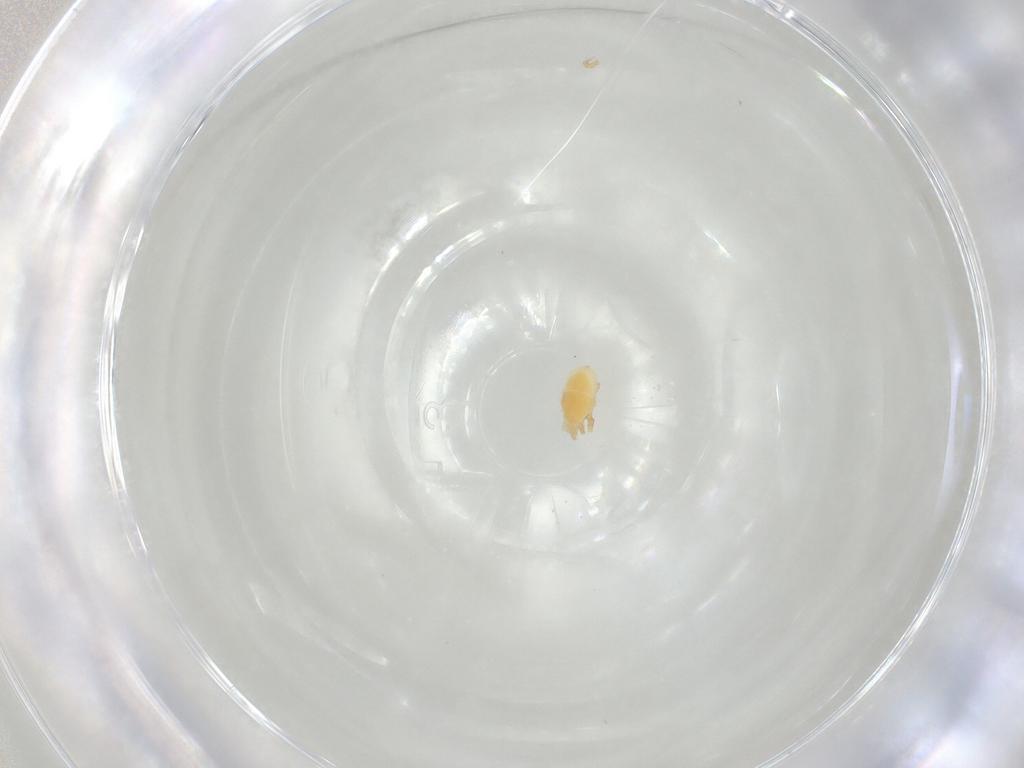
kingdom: Animalia
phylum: Arthropoda
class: Arachnida
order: Mesostigmata
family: Parasitidae
